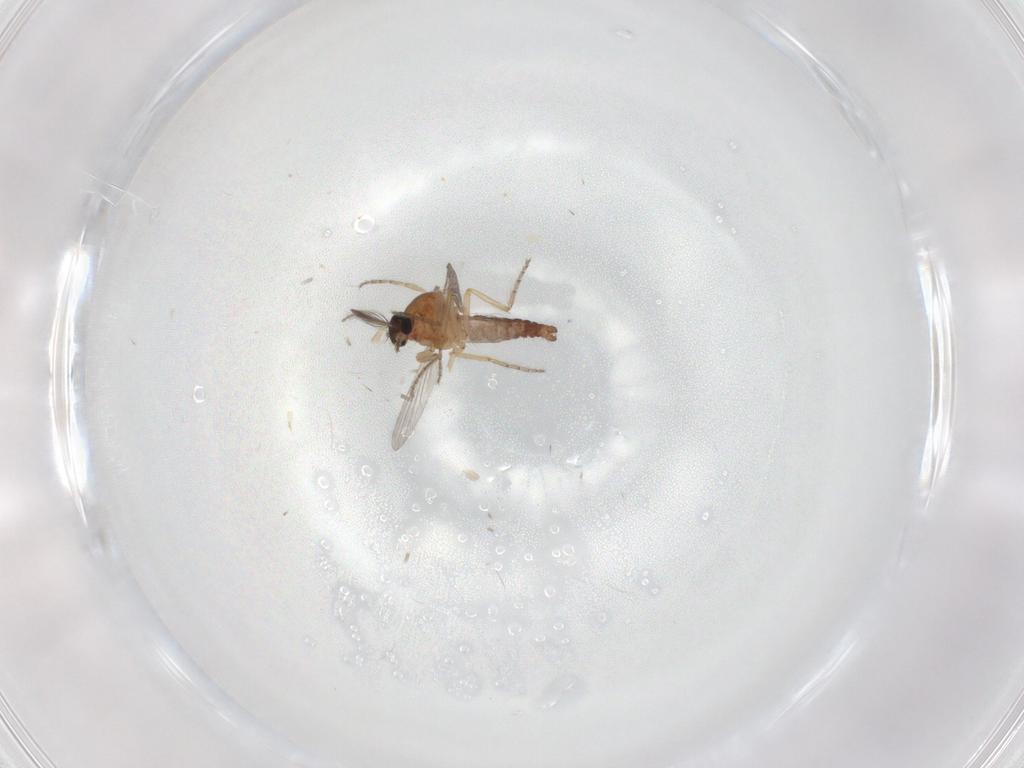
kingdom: Animalia
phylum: Arthropoda
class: Insecta
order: Diptera
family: Ceratopogonidae
